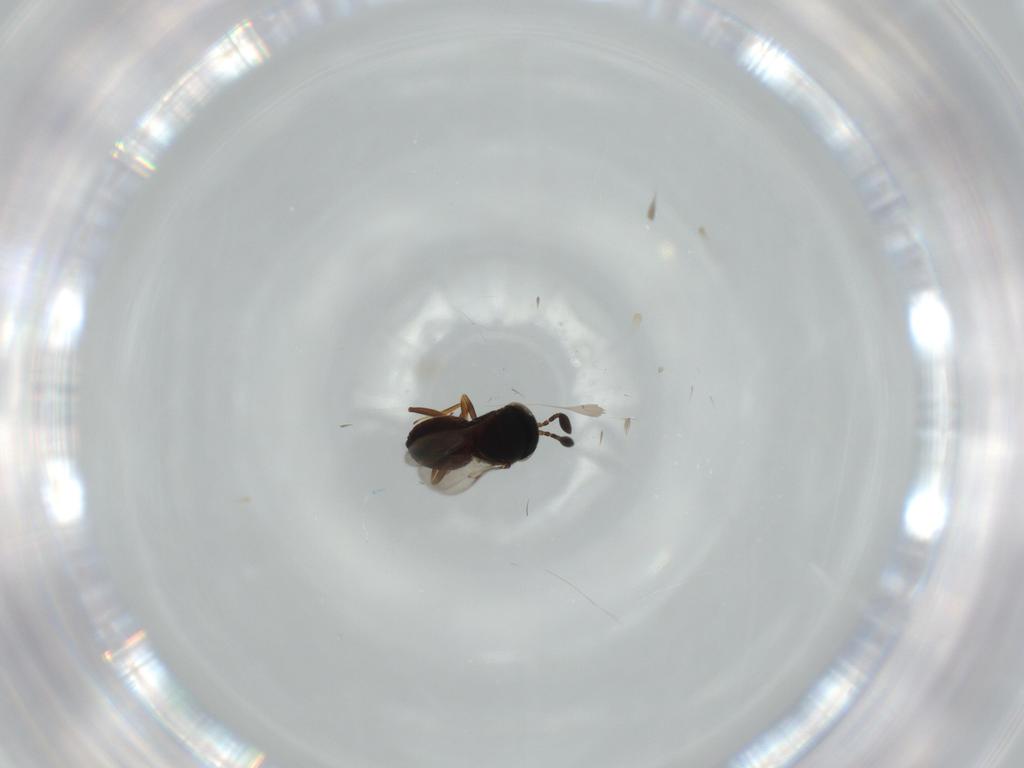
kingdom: Animalia
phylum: Arthropoda
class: Insecta
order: Coleoptera
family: Curculionidae
